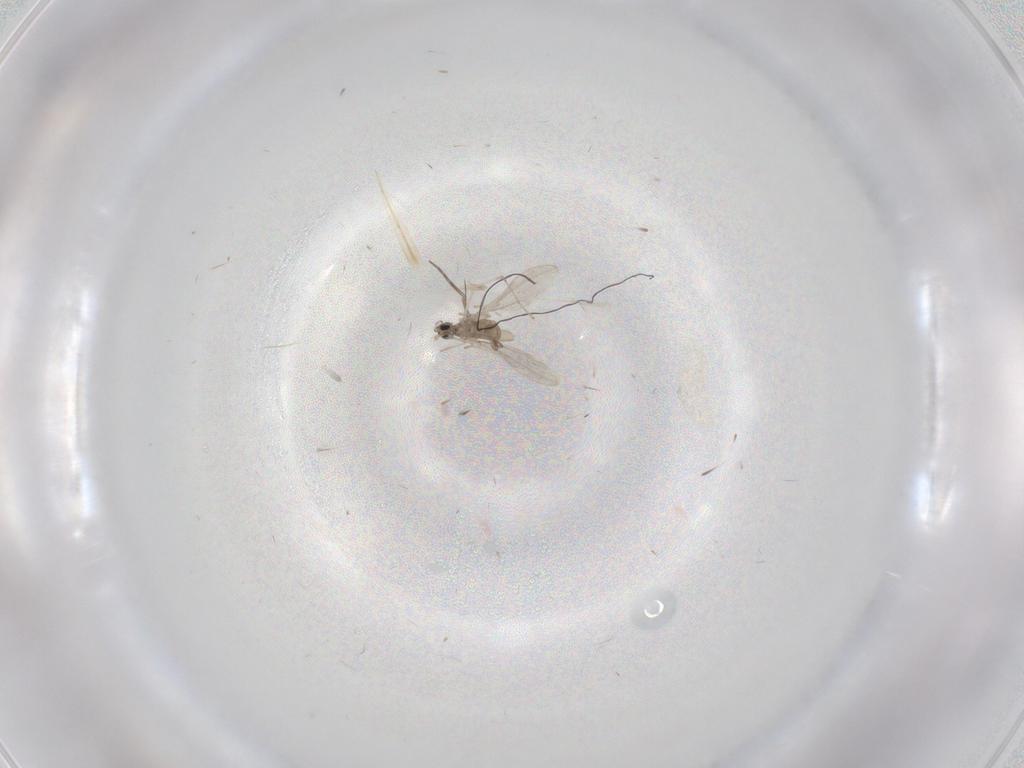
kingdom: Animalia
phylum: Arthropoda
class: Insecta
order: Diptera
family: Cecidomyiidae
